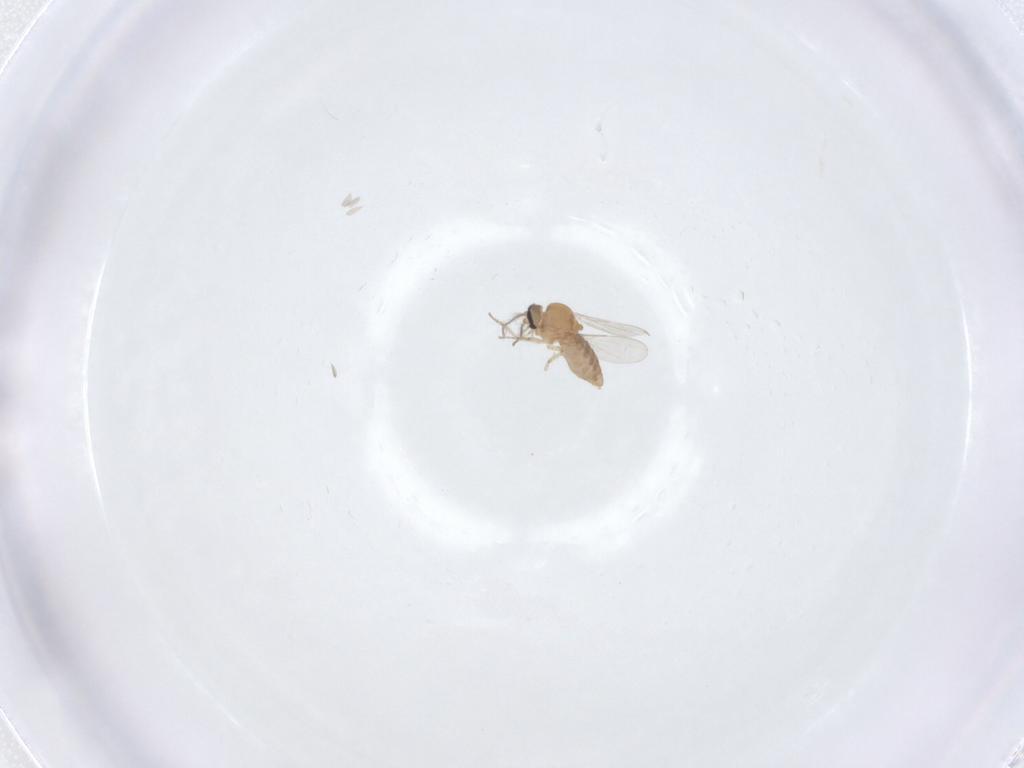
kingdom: Animalia
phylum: Arthropoda
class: Insecta
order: Diptera
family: Ceratopogonidae
